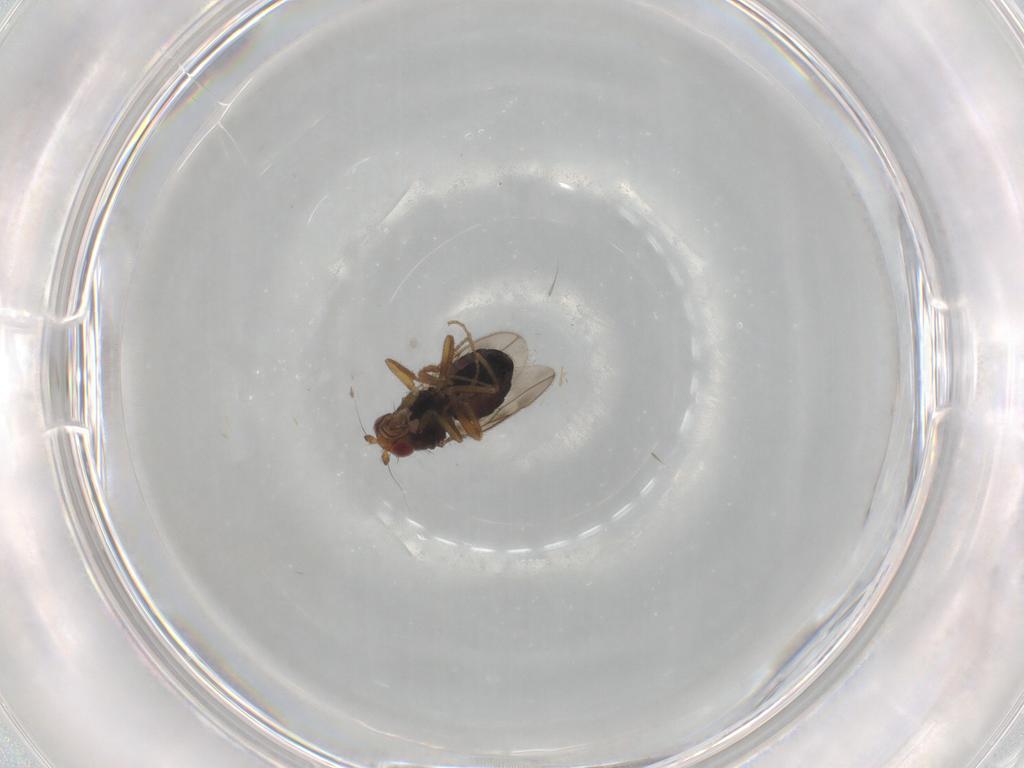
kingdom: Animalia
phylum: Arthropoda
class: Insecta
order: Diptera
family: Sphaeroceridae
